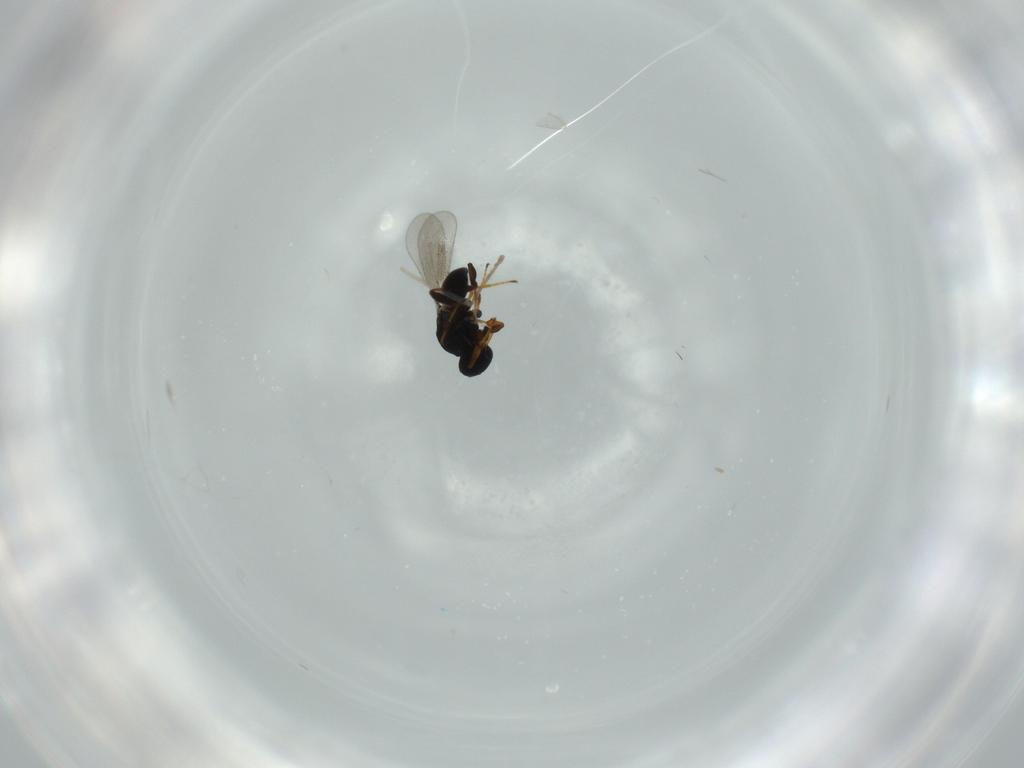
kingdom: Animalia
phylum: Arthropoda
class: Insecta
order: Hymenoptera
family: Platygastridae
